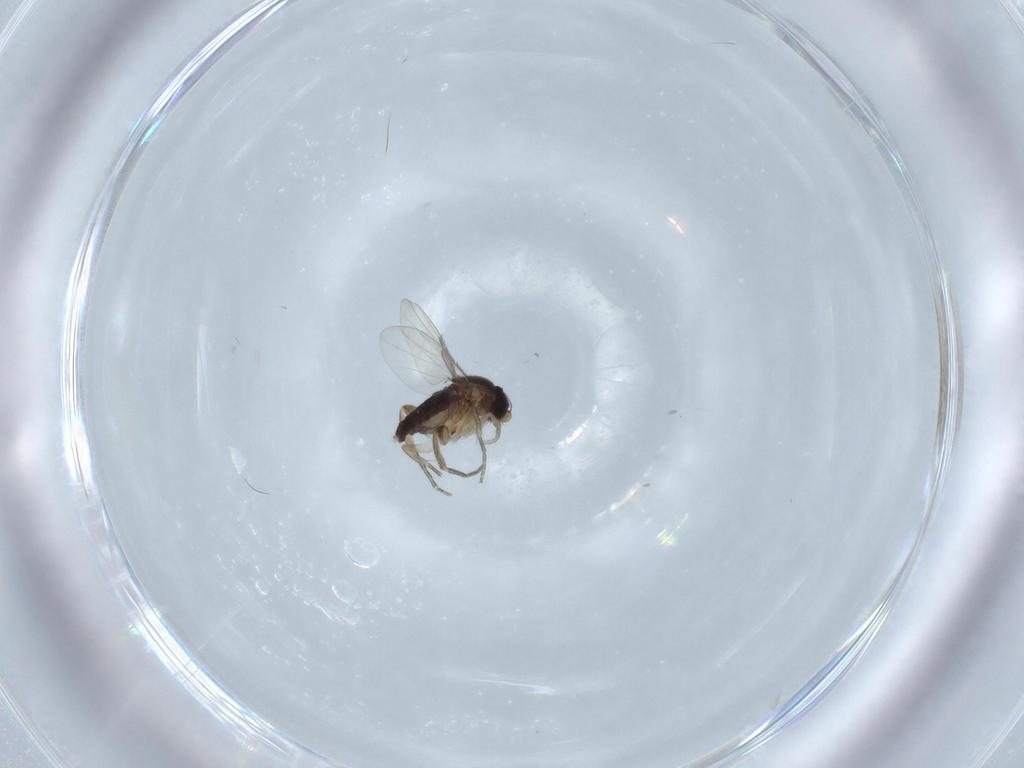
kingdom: Animalia
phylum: Arthropoda
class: Insecta
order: Diptera
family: Phoridae
